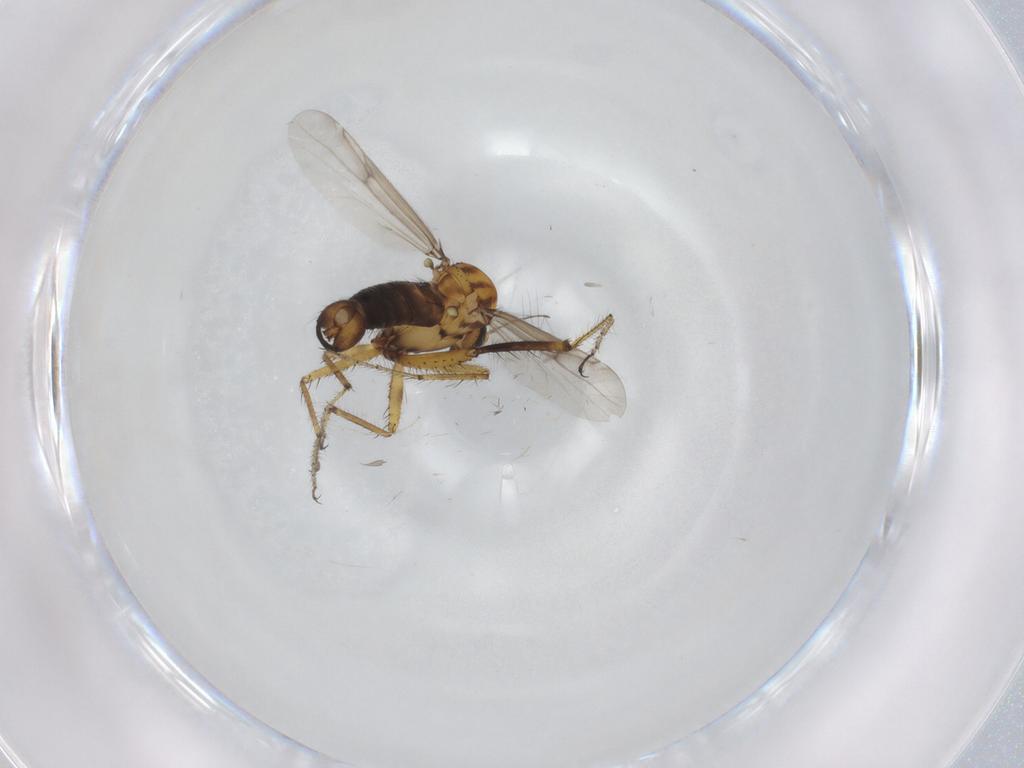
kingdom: Animalia
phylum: Arthropoda
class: Insecta
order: Diptera
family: Ceratopogonidae
